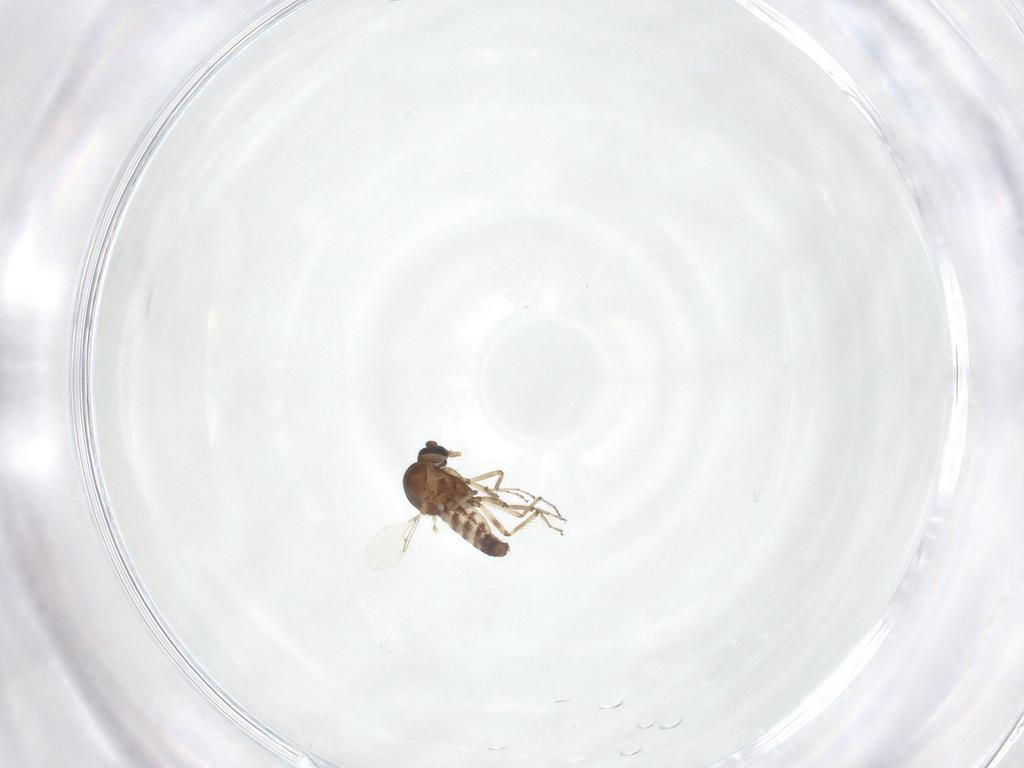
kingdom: Animalia
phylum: Arthropoda
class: Insecta
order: Diptera
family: Ceratopogonidae
